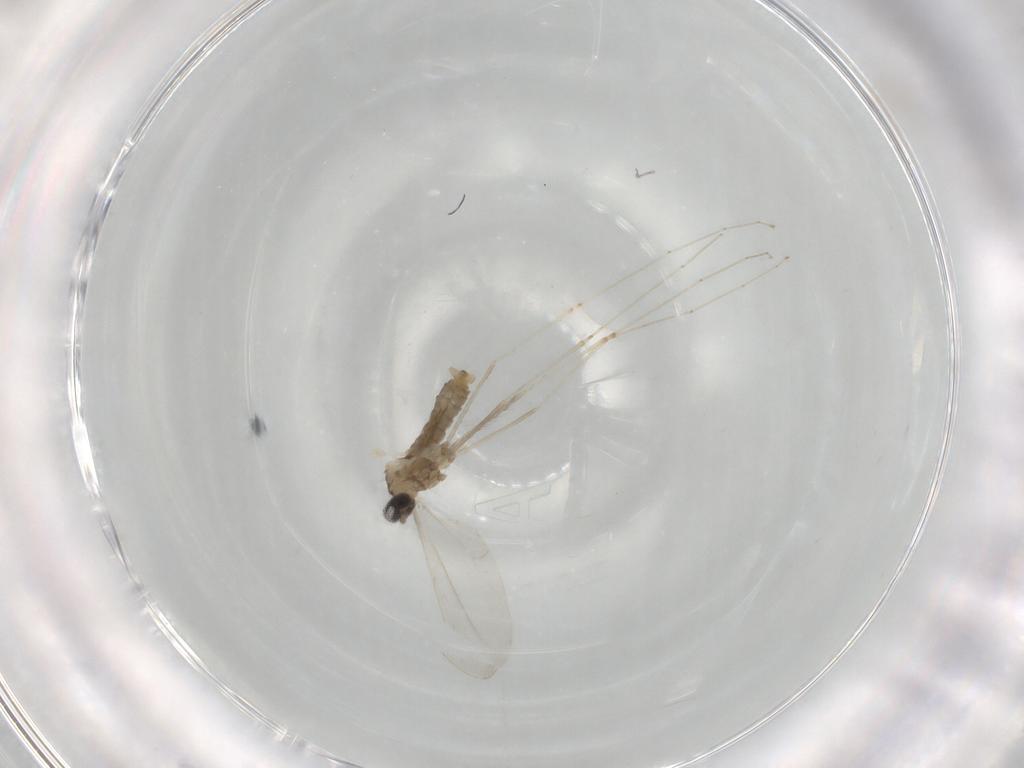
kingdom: Animalia
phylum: Arthropoda
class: Insecta
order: Diptera
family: Cecidomyiidae
